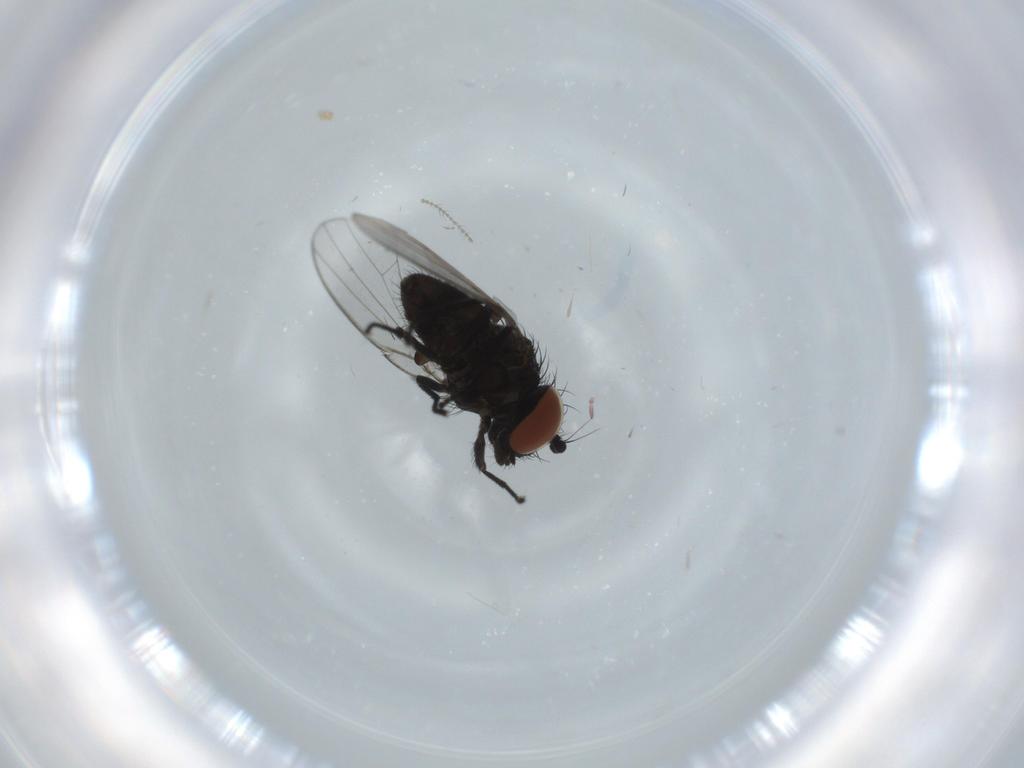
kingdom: Animalia
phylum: Arthropoda
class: Insecta
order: Diptera
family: Milichiidae
